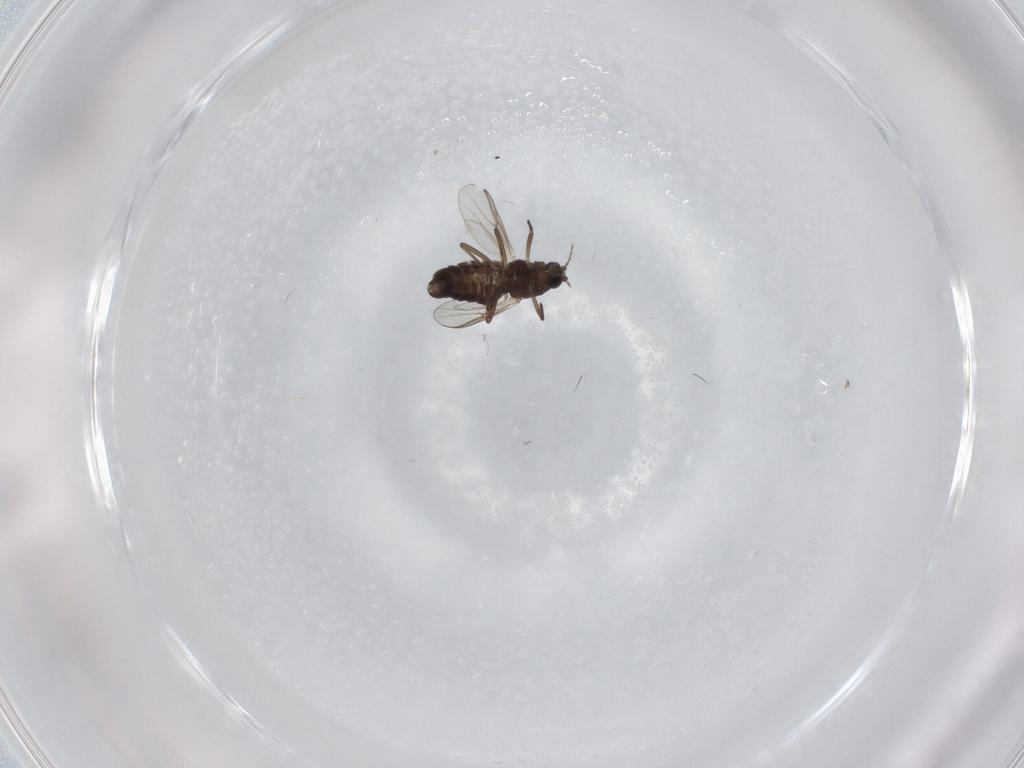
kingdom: Animalia
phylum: Arthropoda
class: Insecta
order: Diptera
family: Chironomidae
